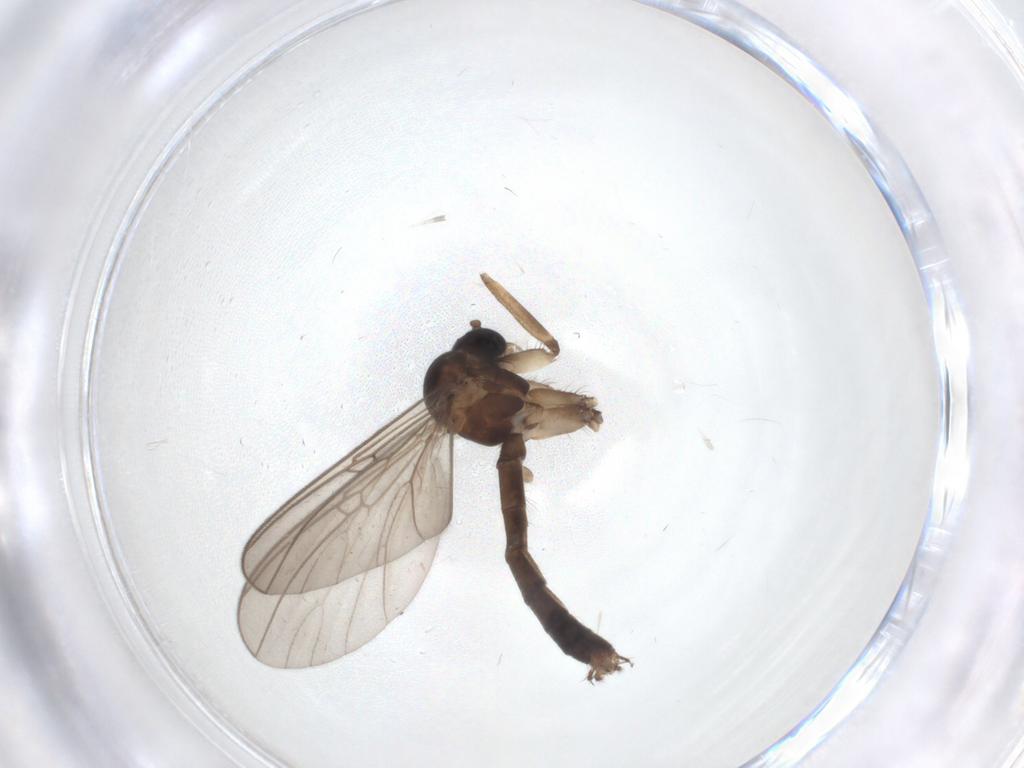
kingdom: Animalia
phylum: Arthropoda
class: Insecta
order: Diptera
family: Mycetophilidae
